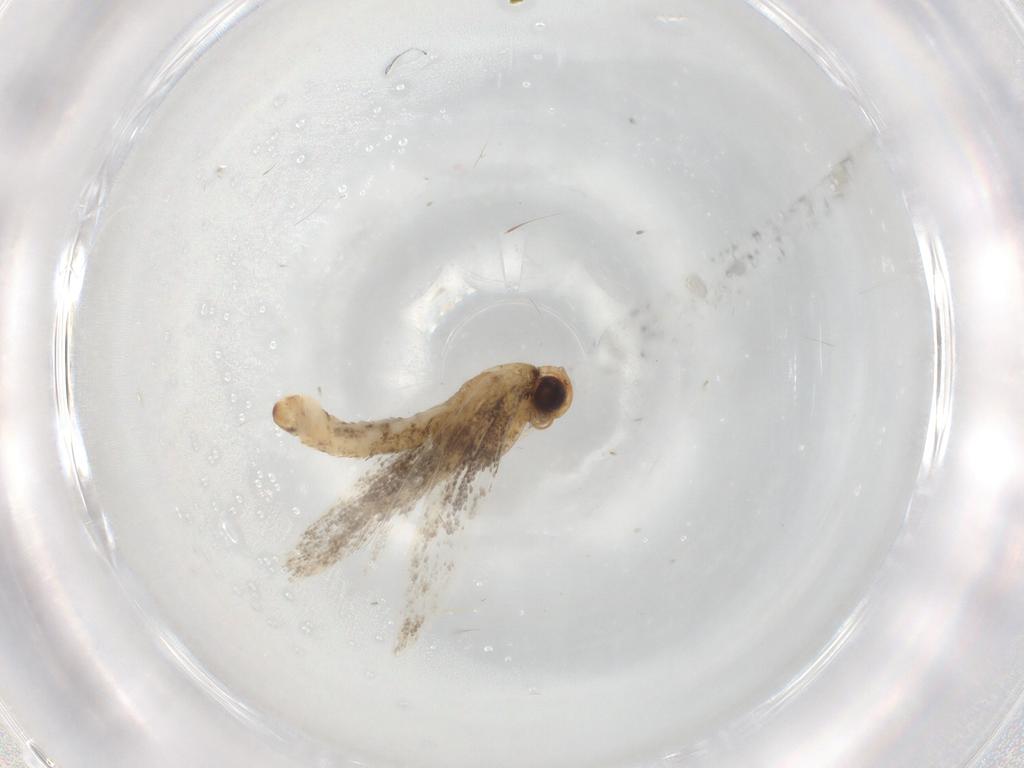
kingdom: Animalia
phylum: Arthropoda
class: Insecta
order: Lepidoptera
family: Gracillariidae
